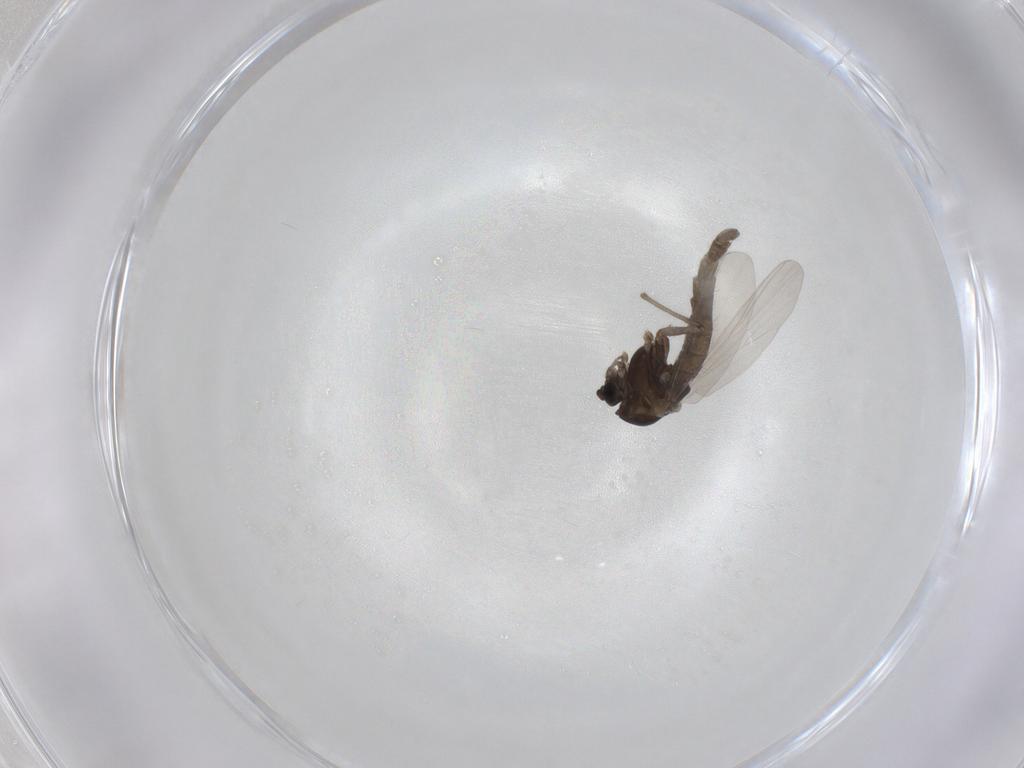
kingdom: Animalia
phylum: Arthropoda
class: Insecta
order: Diptera
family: Chironomidae
